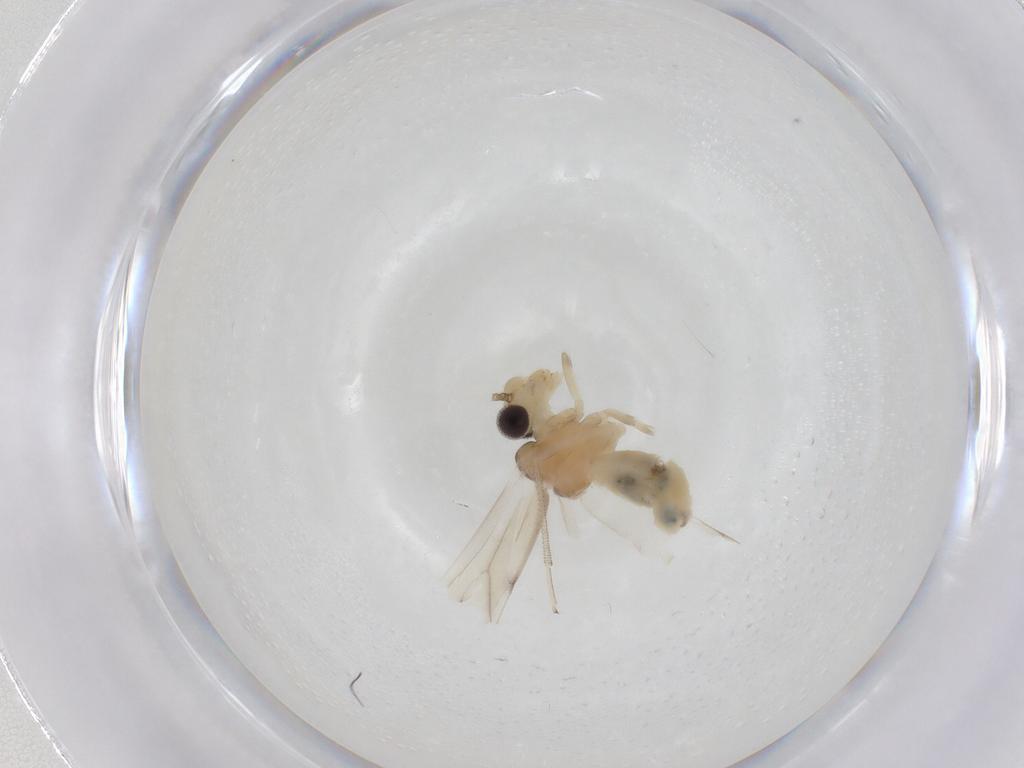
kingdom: Animalia
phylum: Arthropoda
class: Insecta
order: Psocodea
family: Caeciliusidae
